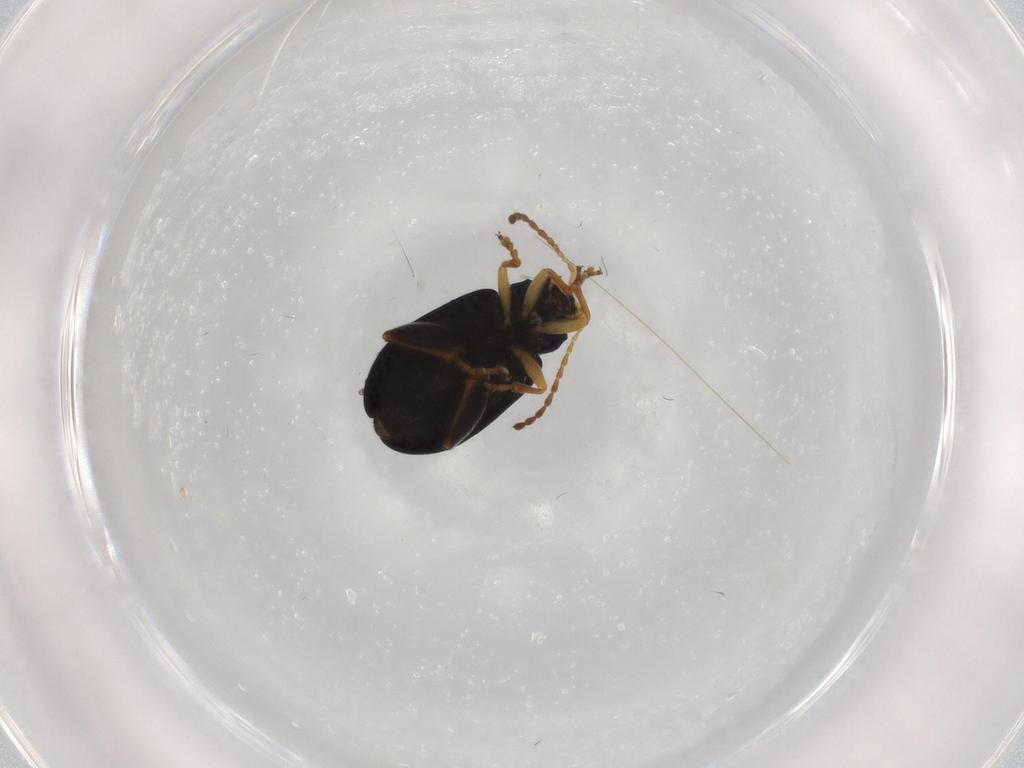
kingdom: Animalia
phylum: Arthropoda
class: Insecta
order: Coleoptera
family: Chrysomelidae
